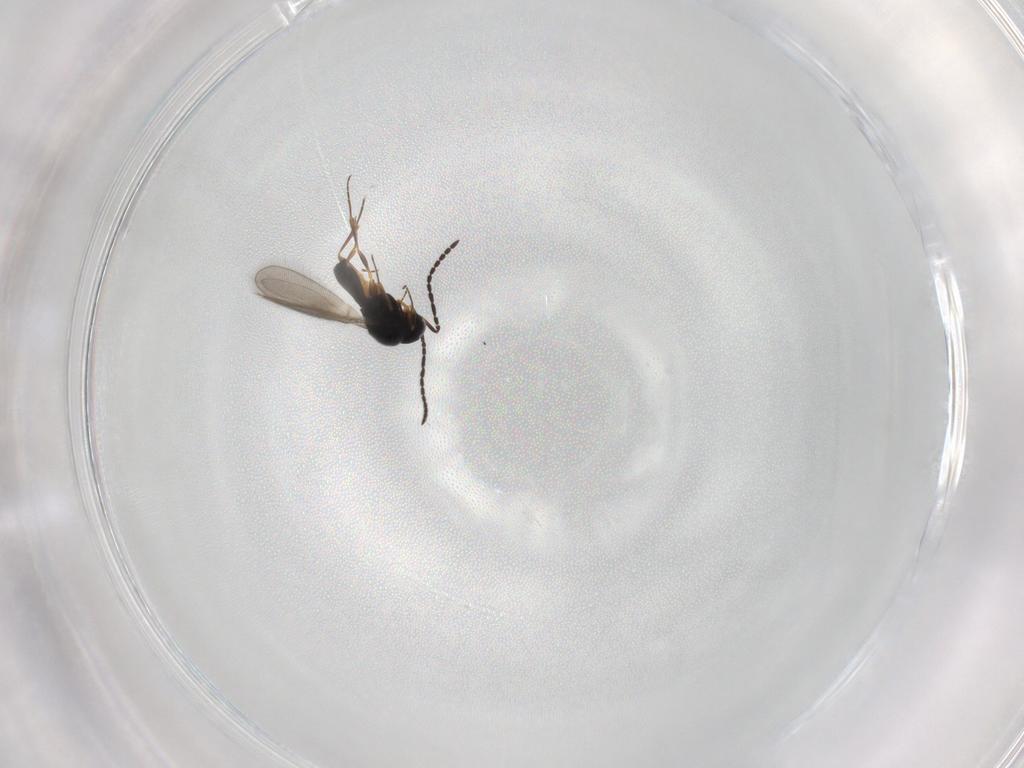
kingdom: Animalia
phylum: Arthropoda
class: Insecta
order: Hymenoptera
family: Scelionidae
